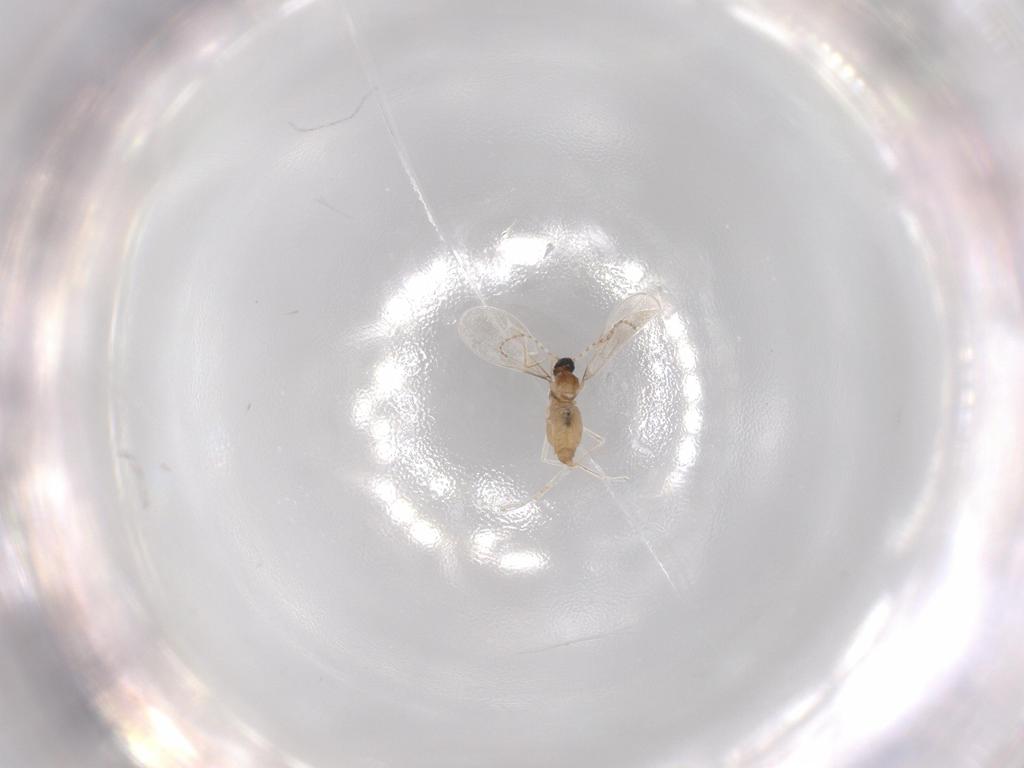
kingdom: Animalia
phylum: Arthropoda
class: Insecta
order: Diptera
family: Cecidomyiidae
